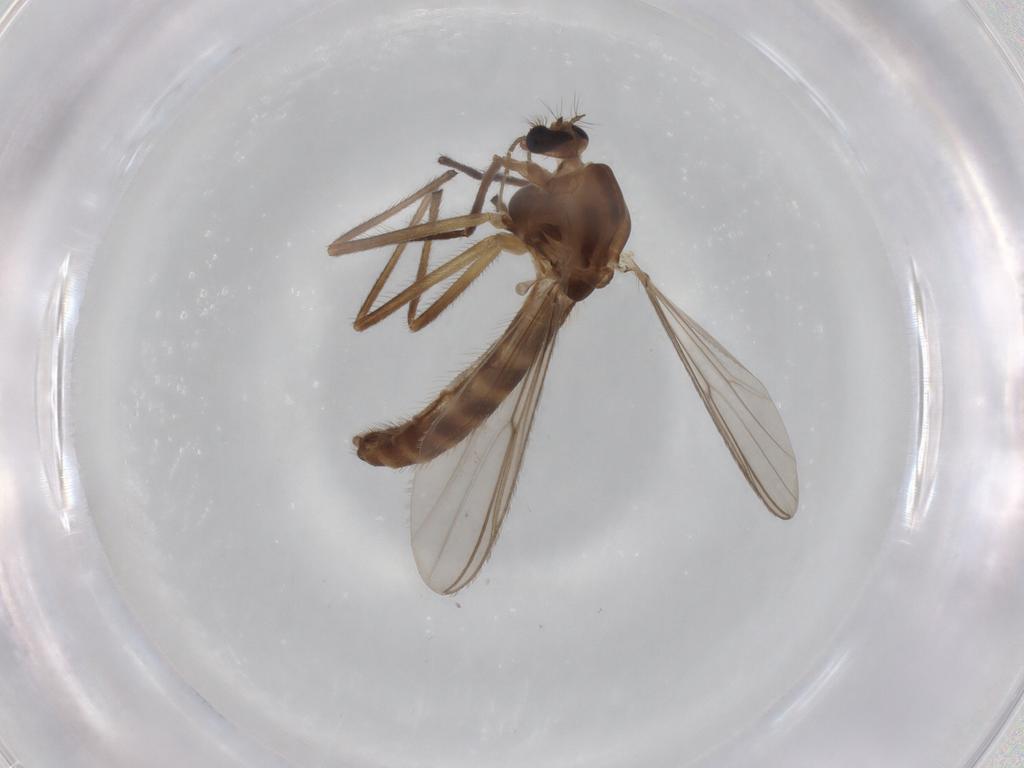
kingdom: Animalia
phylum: Arthropoda
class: Insecta
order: Diptera
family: Chironomidae
